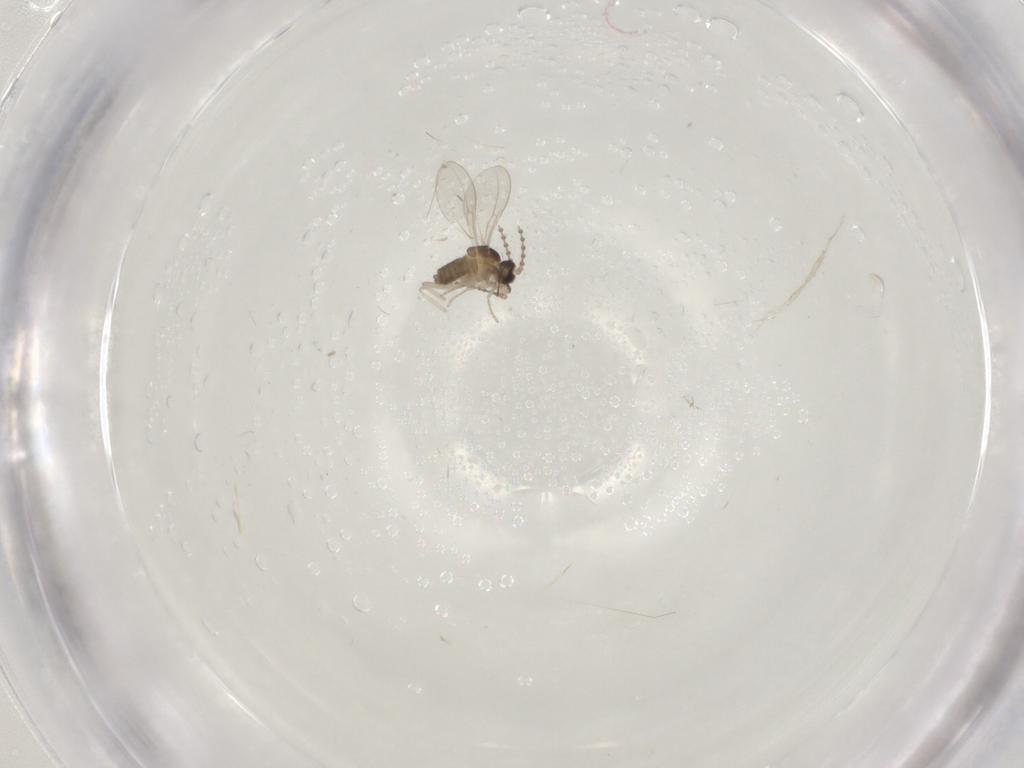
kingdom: Animalia
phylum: Arthropoda
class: Insecta
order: Diptera
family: Cecidomyiidae
